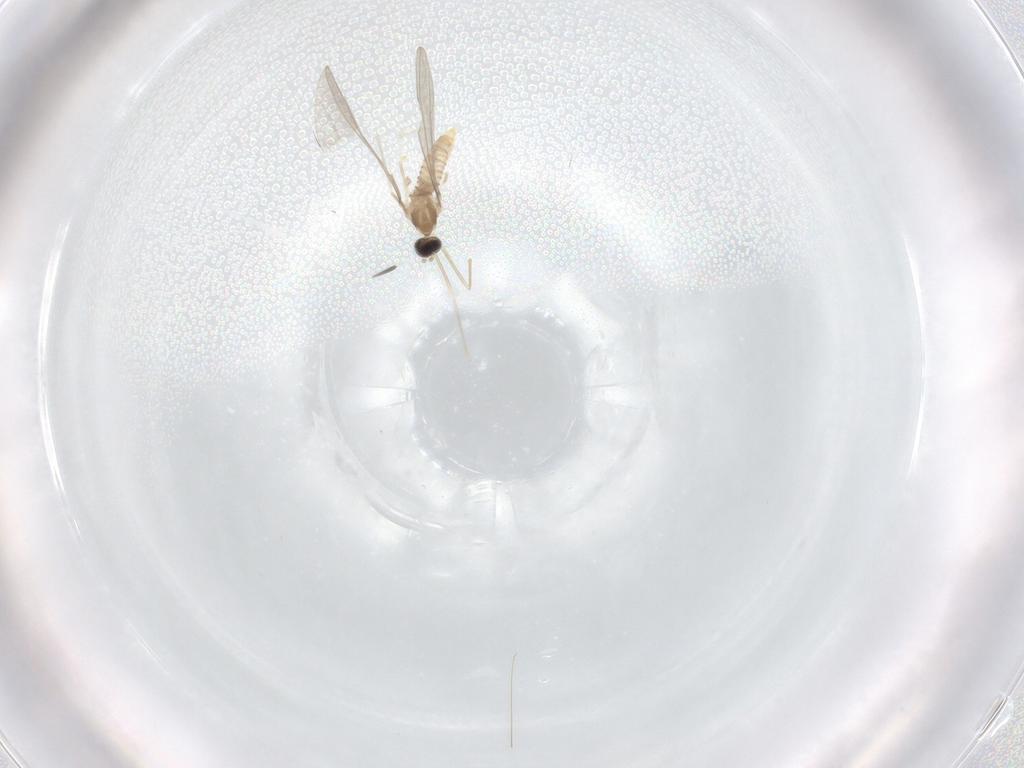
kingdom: Animalia
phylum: Arthropoda
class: Insecta
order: Diptera
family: Cecidomyiidae
